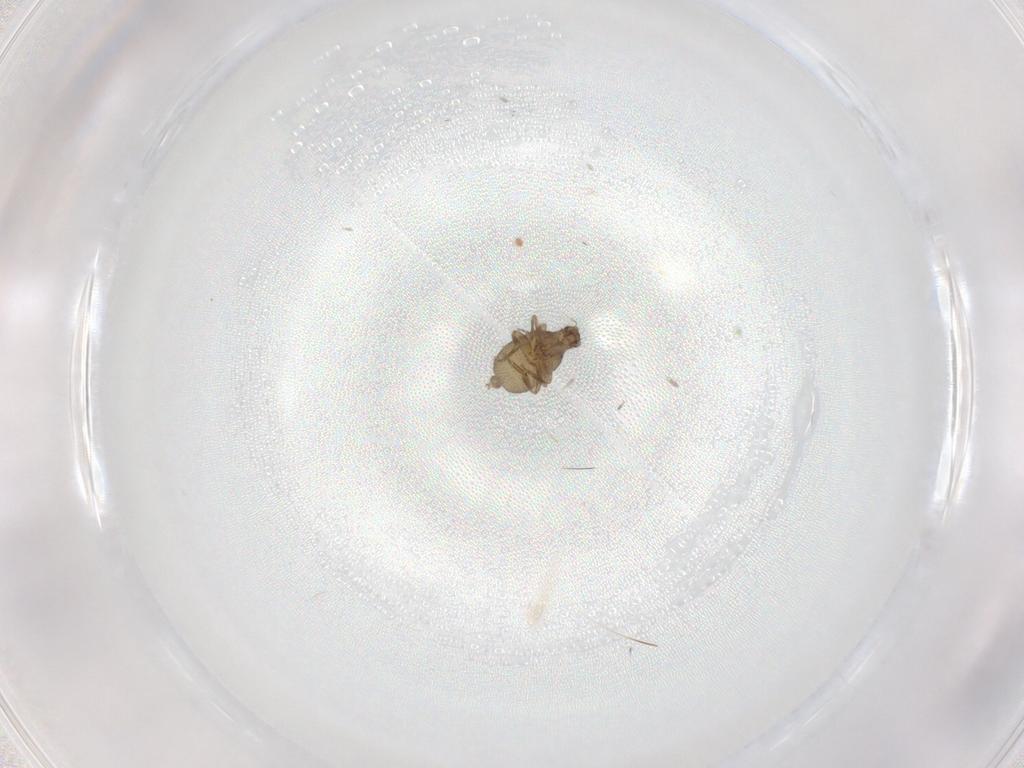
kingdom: Animalia
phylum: Arthropoda
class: Insecta
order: Diptera
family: Chironomidae
